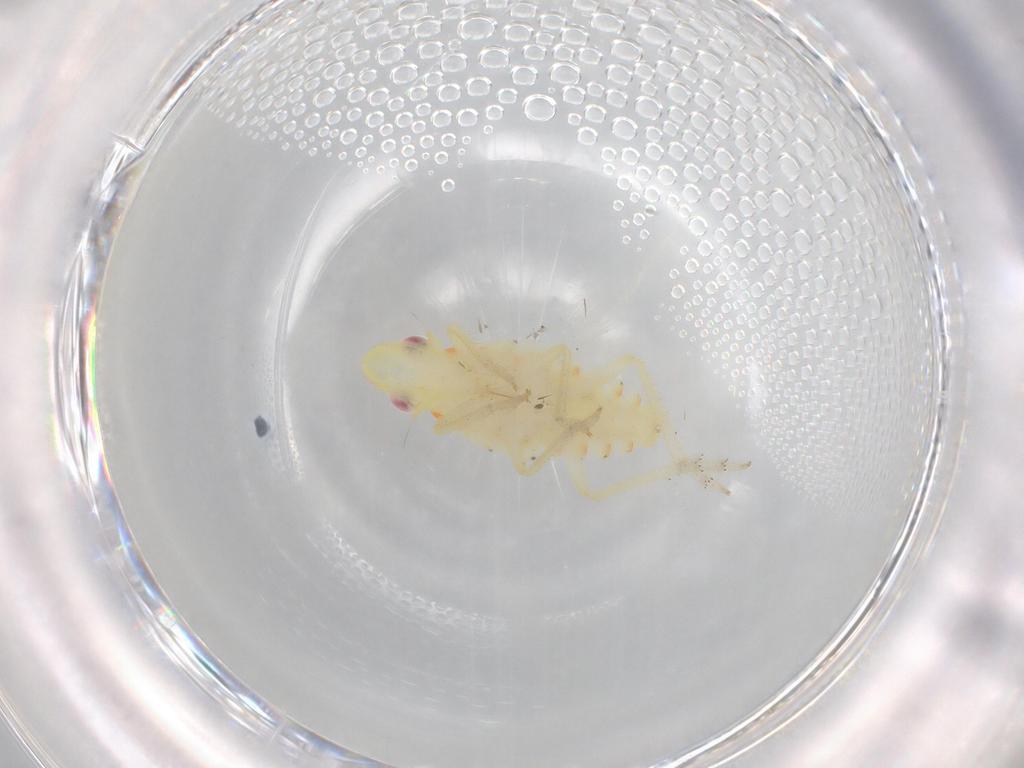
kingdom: Animalia
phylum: Arthropoda
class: Insecta
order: Hemiptera
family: Tropiduchidae
